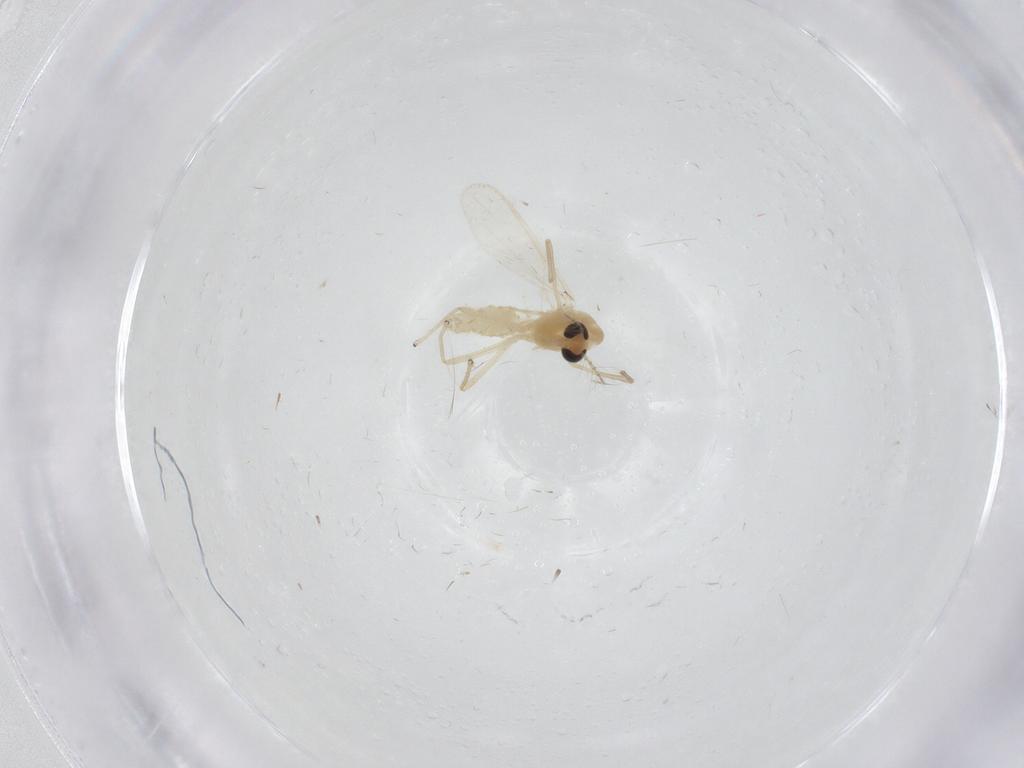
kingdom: Animalia
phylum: Arthropoda
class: Insecta
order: Diptera
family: Chironomidae
